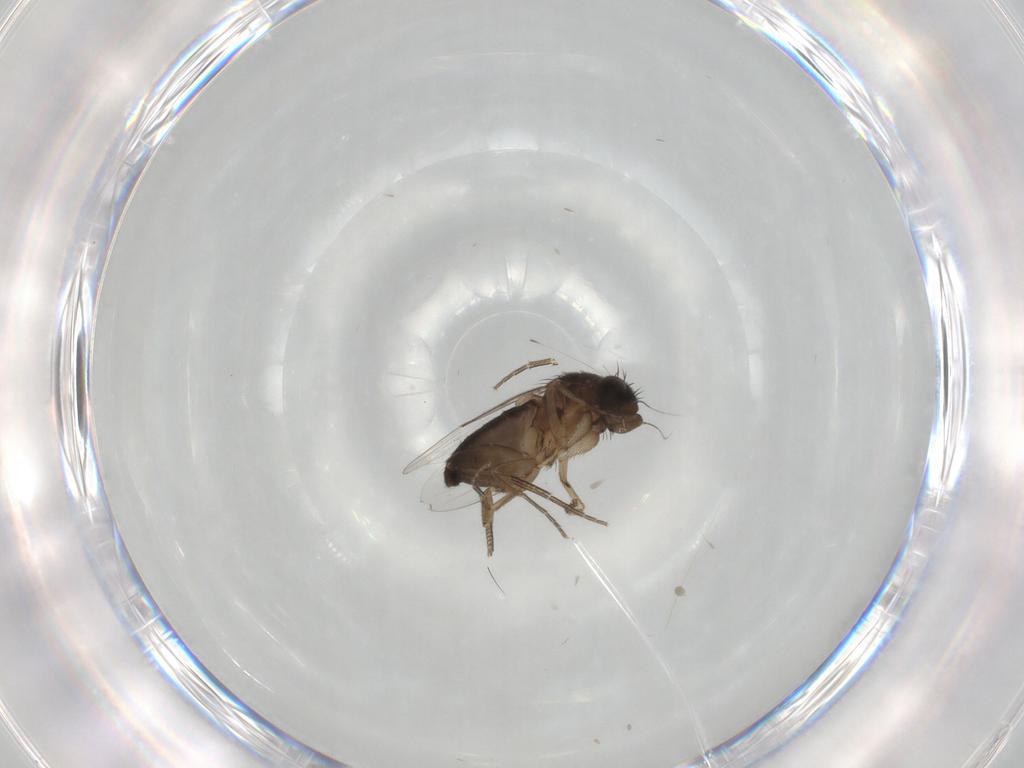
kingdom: Animalia
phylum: Arthropoda
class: Insecta
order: Diptera
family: Phoridae
